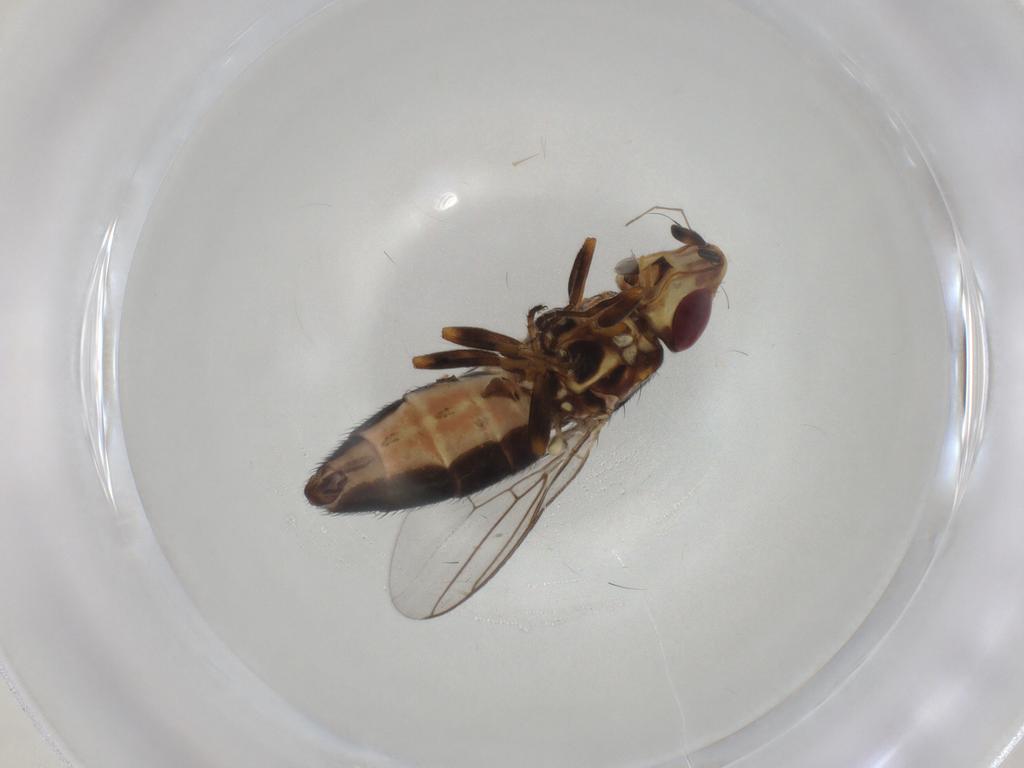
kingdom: Animalia
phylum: Arthropoda
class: Insecta
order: Diptera
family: Chloropidae
